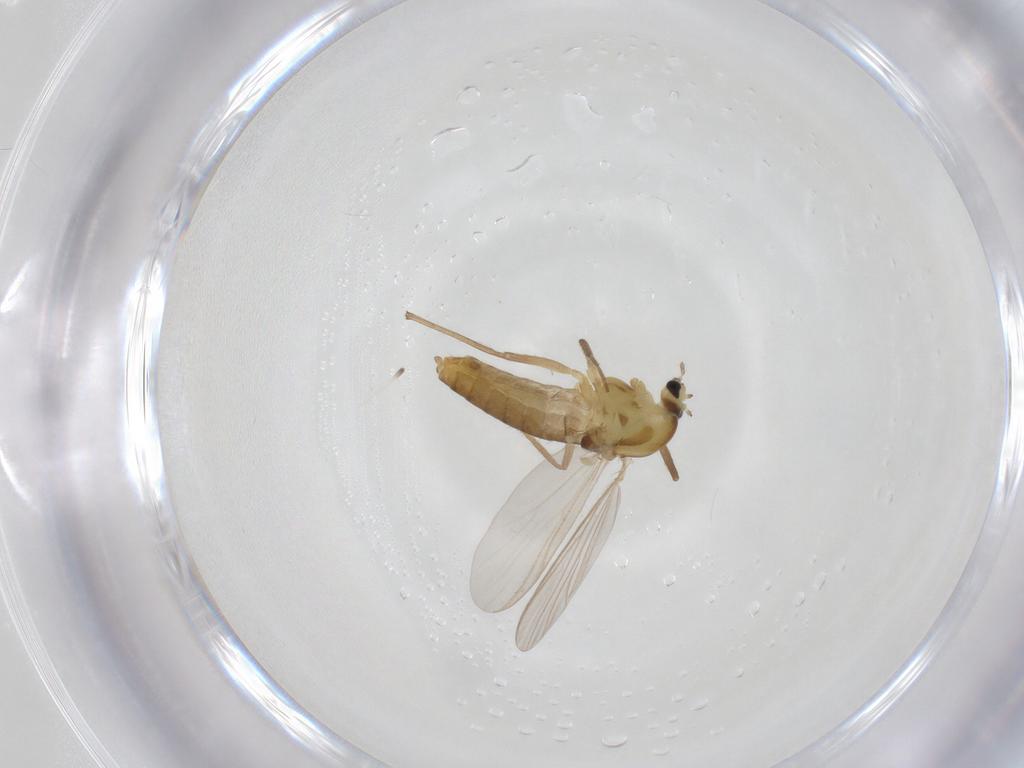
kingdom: Animalia
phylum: Arthropoda
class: Insecta
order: Diptera
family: Chironomidae
